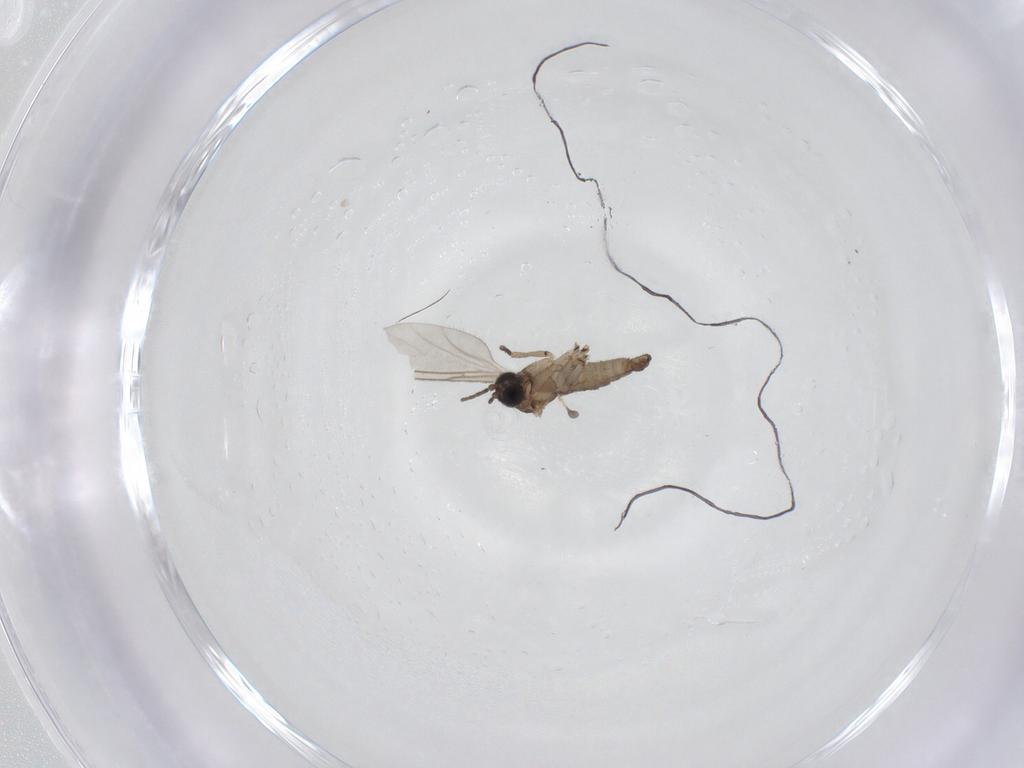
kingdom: Animalia
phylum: Arthropoda
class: Insecta
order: Diptera
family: Sciaridae
